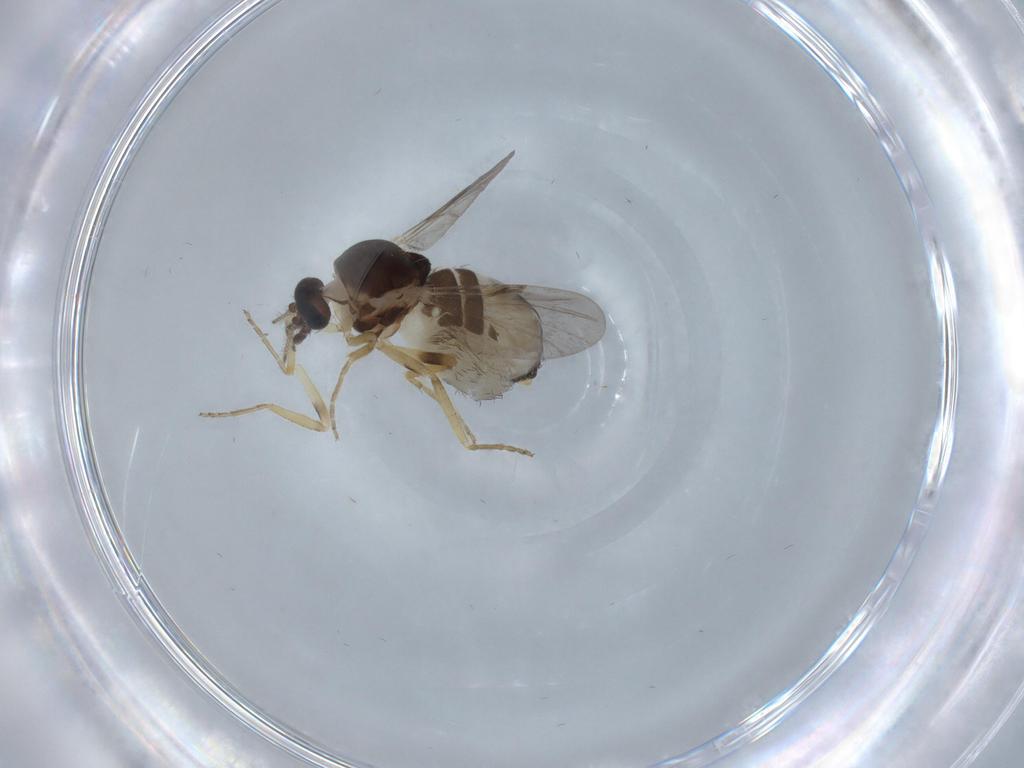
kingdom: Animalia
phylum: Arthropoda
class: Insecta
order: Diptera
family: Ceratopogonidae
